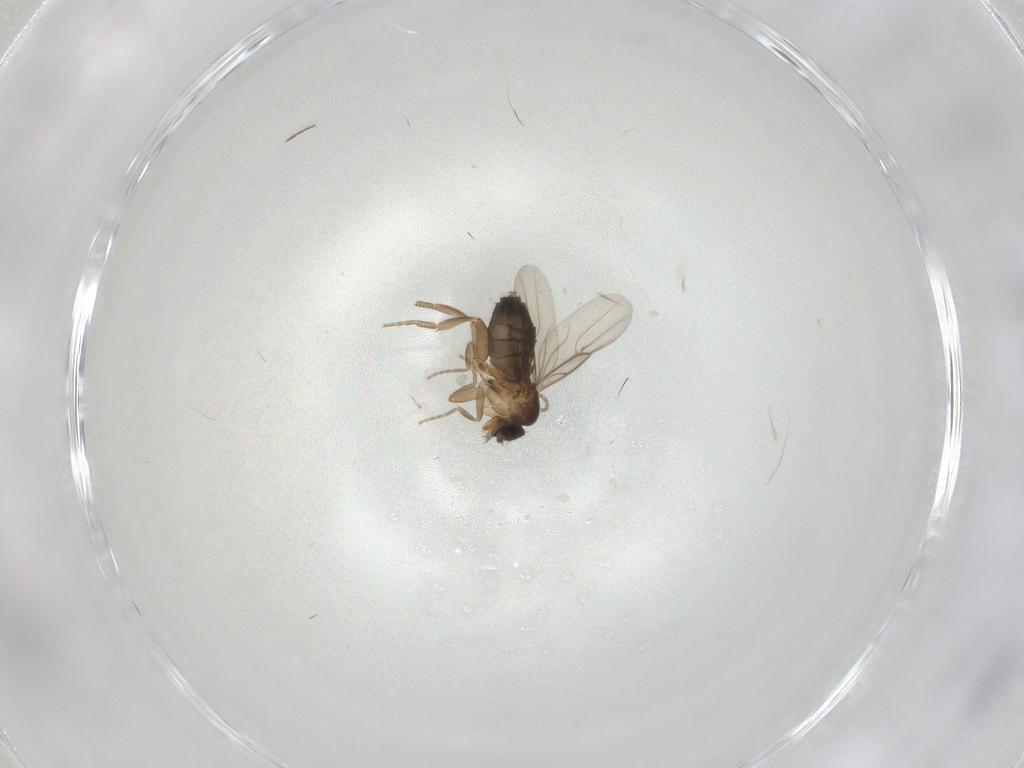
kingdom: Animalia
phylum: Arthropoda
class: Insecta
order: Diptera
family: Phoridae
